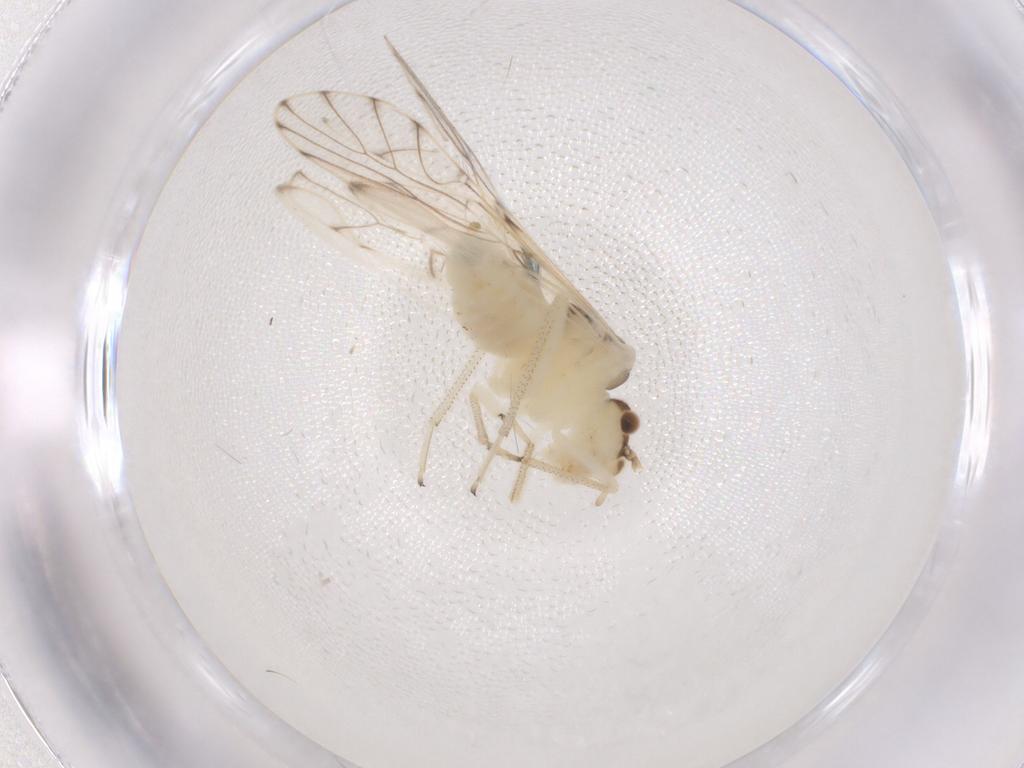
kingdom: Animalia
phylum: Arthropoda
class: Insecta
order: Psocodea
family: Philotarsidae
